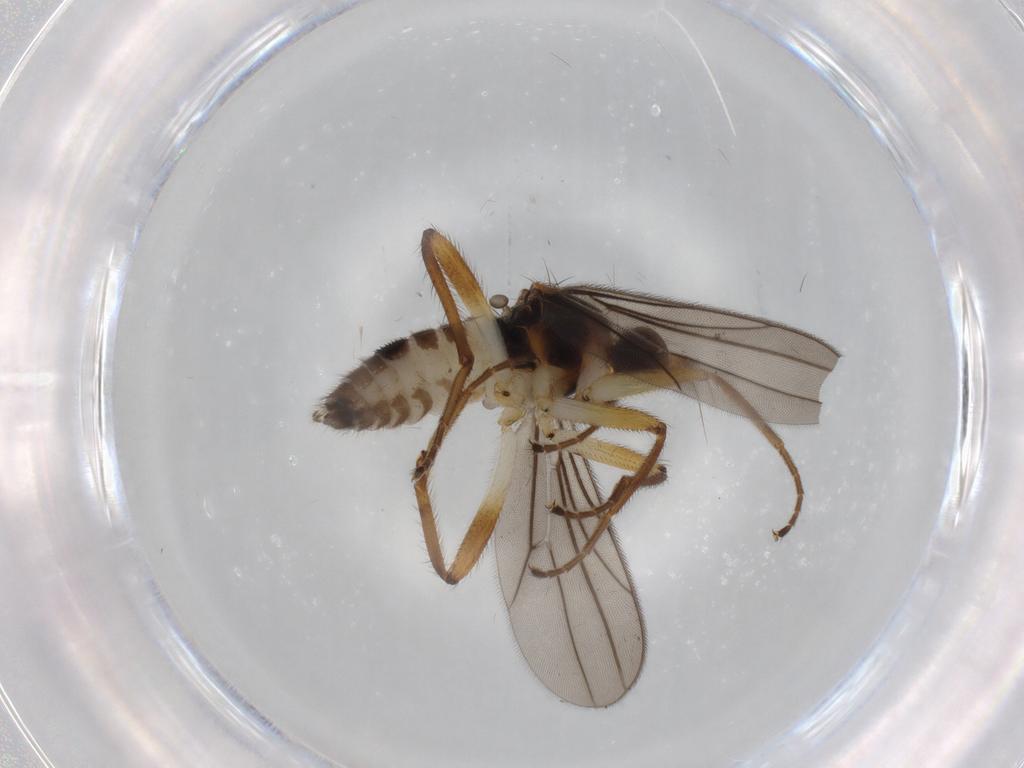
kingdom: Animalia
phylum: Arthropoda
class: Insecta
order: Diptera
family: Hybotidae
